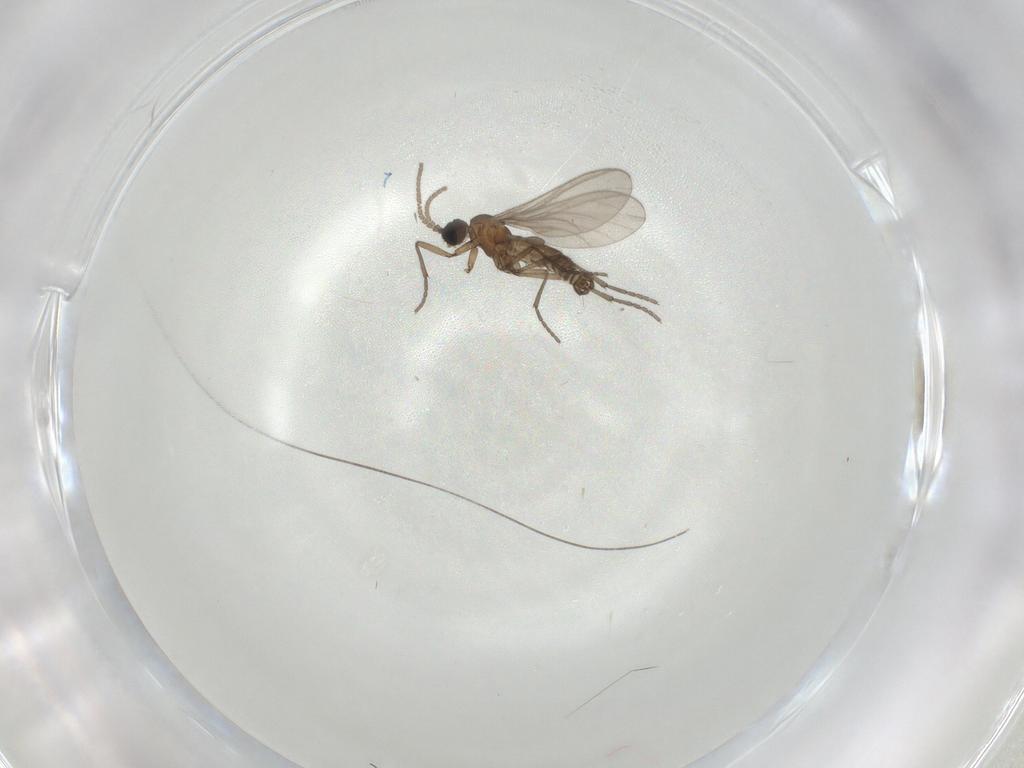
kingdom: Animalia
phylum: Arthropoda
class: Insecta
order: Diptera
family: Sciaridae
